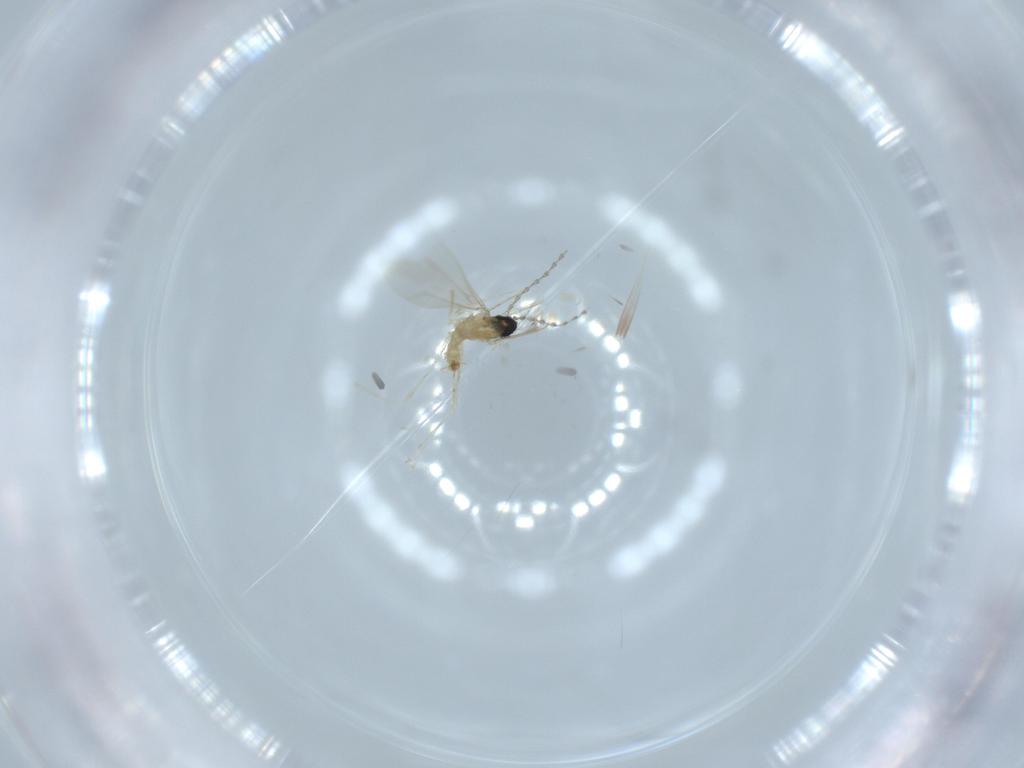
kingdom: Animalia
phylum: Arthropoda
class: Insecta
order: Diptera
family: Cecidomyiidae
